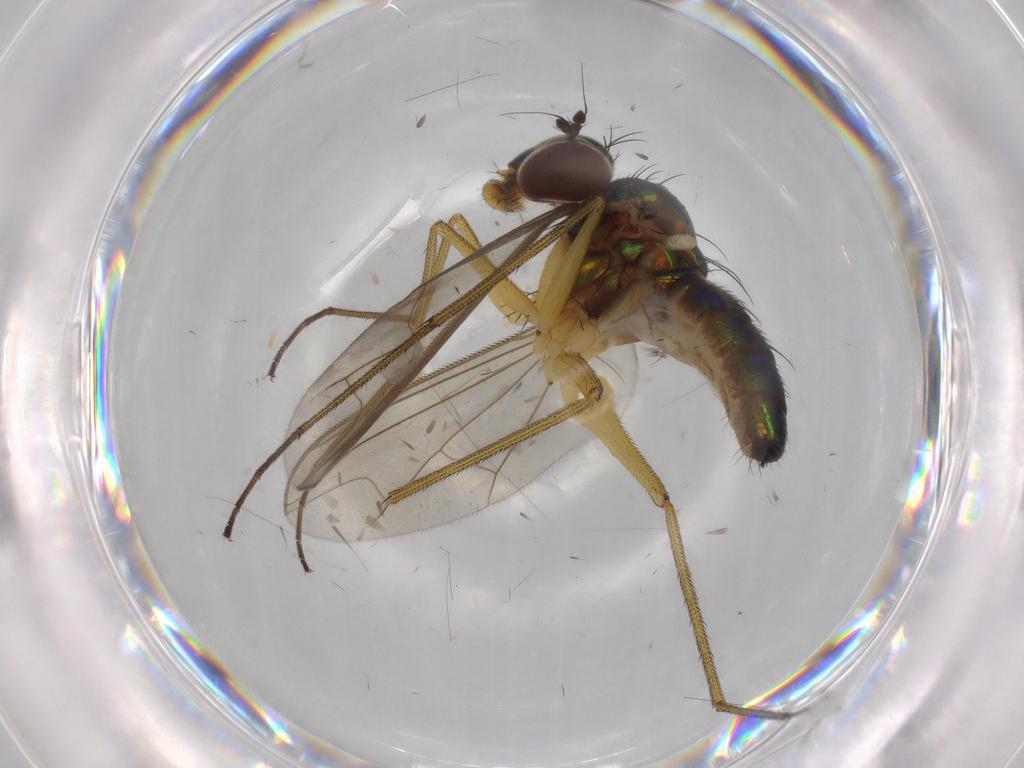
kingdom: Animalia
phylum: Arthropoda
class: Insecta
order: Diptera
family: Dolichopodidae
